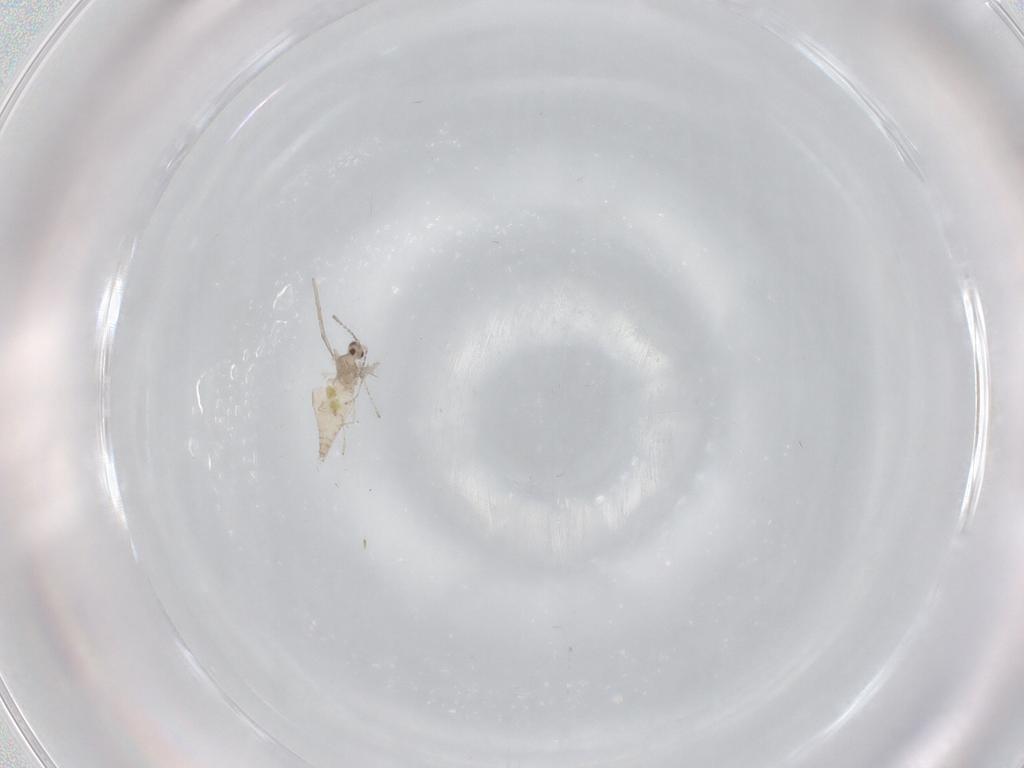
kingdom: Animalia
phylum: Arthropoda
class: Insecta
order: Diptera
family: Cecidomyiidae
